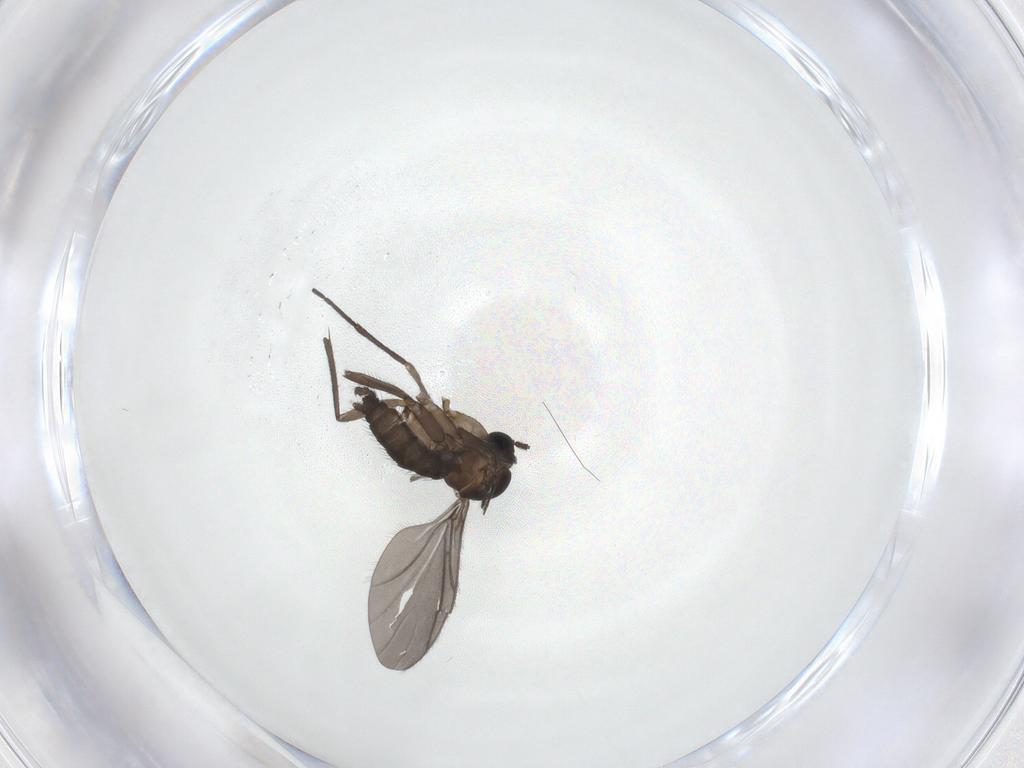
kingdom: Animalia
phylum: Arthropoda
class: Insecta
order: Diptera
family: Sciaridae
